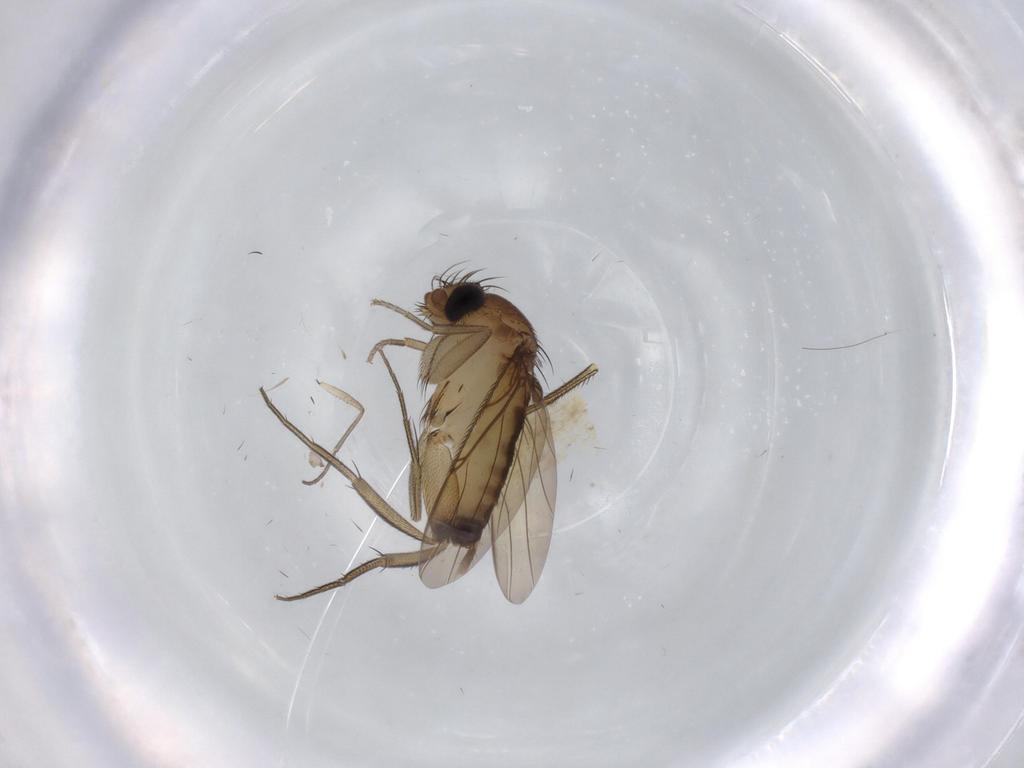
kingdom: Animalia
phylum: Arthropoda
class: Insecta
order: Diptera
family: Phoridae
